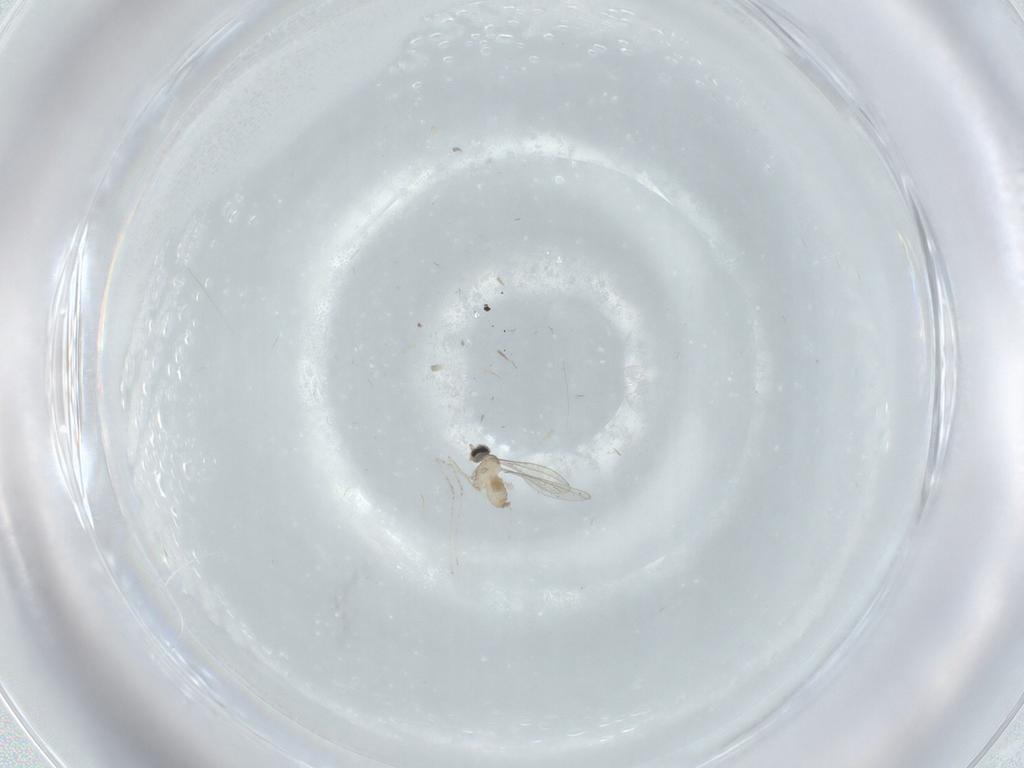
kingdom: Animalia
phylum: Arthropoda
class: Insecta
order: Diptera
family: Cecidomyiidae
